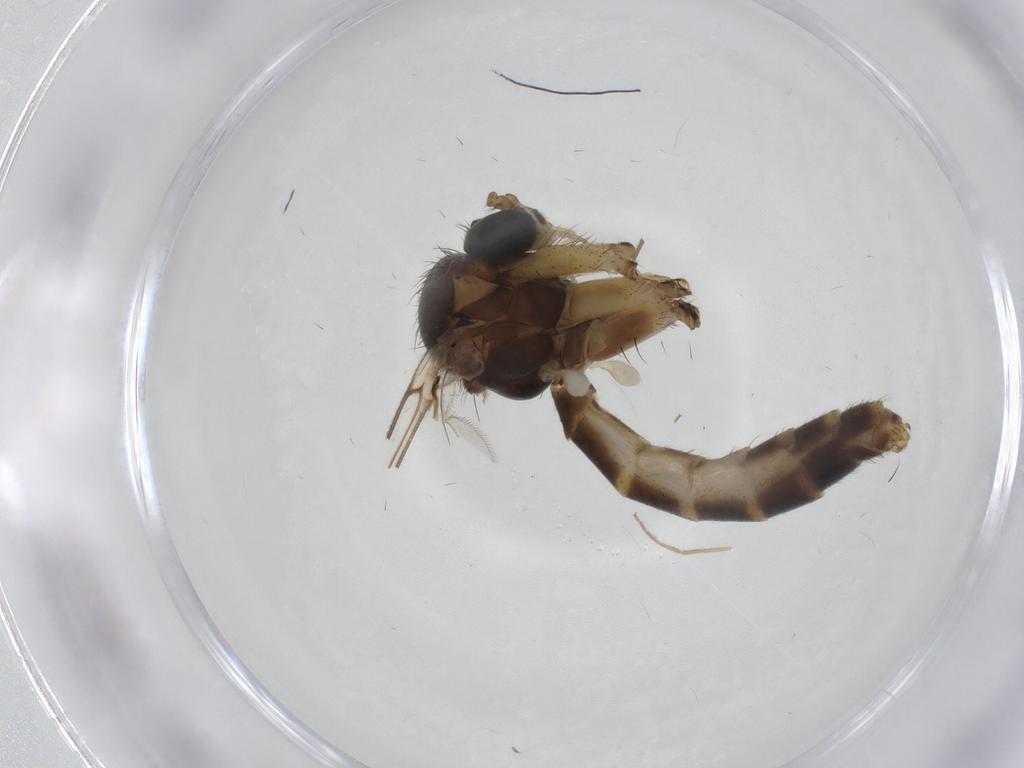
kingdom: Animalia
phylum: Arthropoda
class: Insecta
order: Diptera
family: Chironomidae
